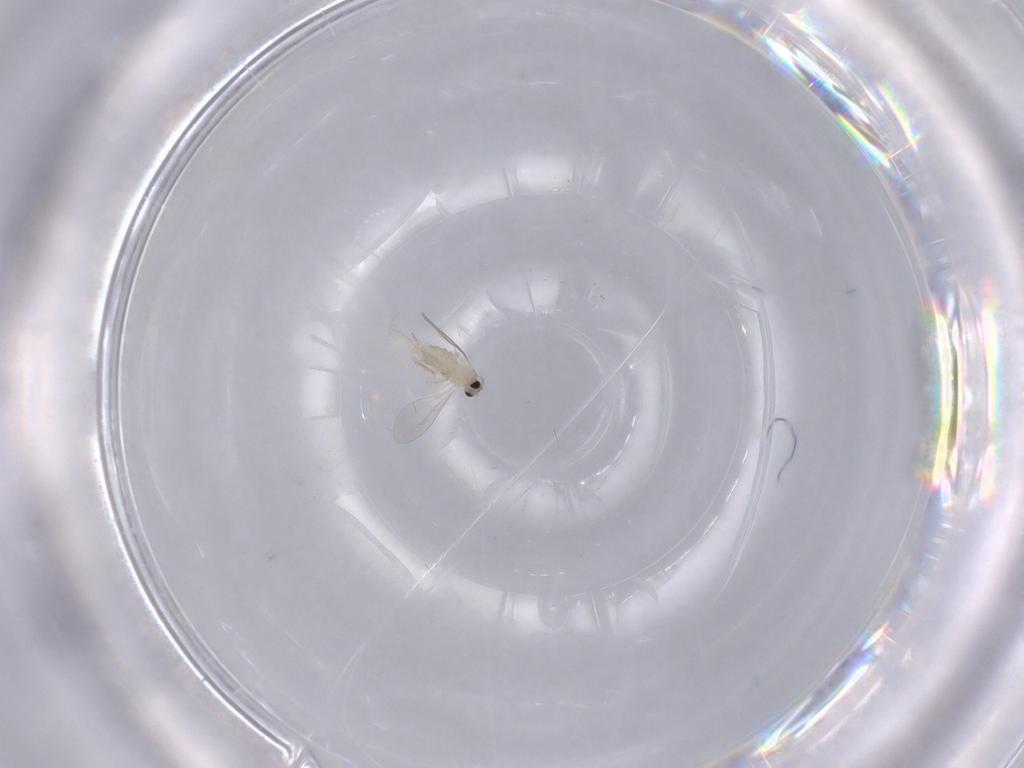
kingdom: Animalia
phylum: Arthropoda
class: Insecta
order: Diptera
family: Cecidomyiidae
